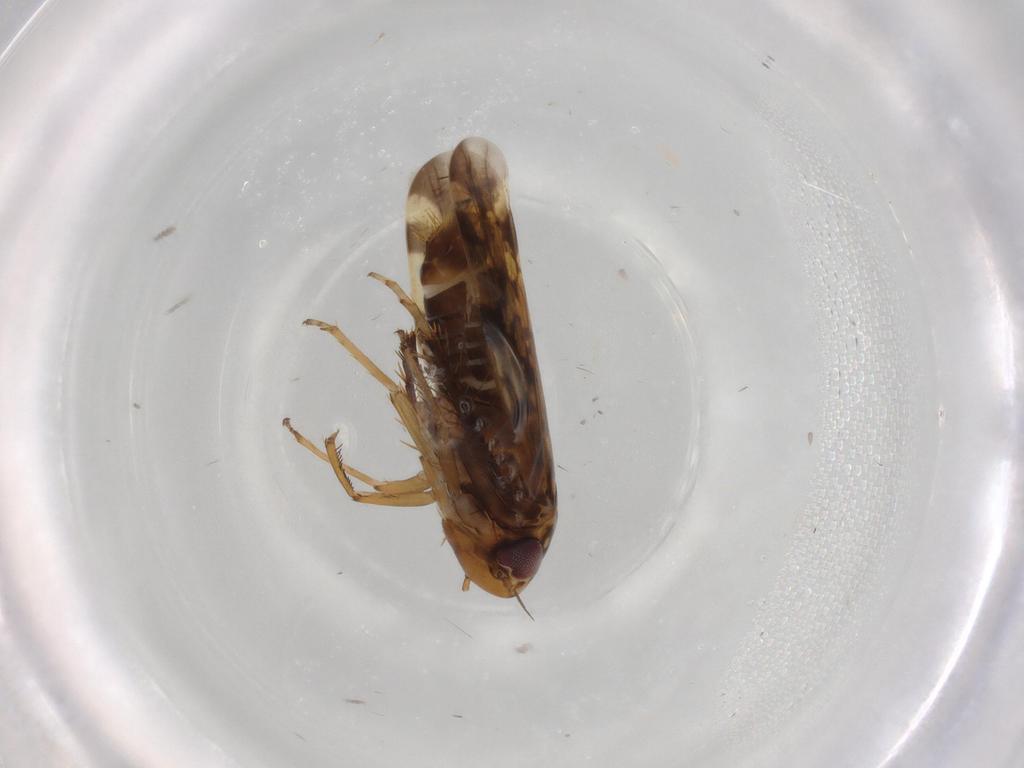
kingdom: Animalia
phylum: Arthropoda
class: Insecta
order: Hemiptera
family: Cicadellidae
